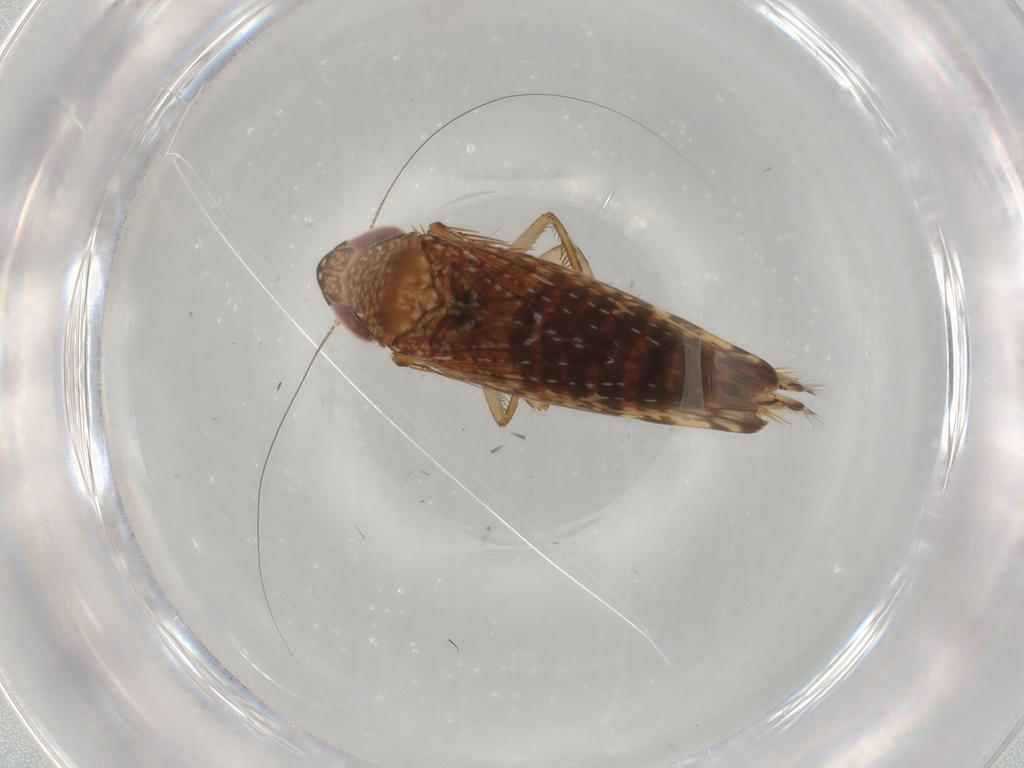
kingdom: Animalia
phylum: Arthropoda
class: Insecta
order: Hemiptera
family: Cicadellidae
